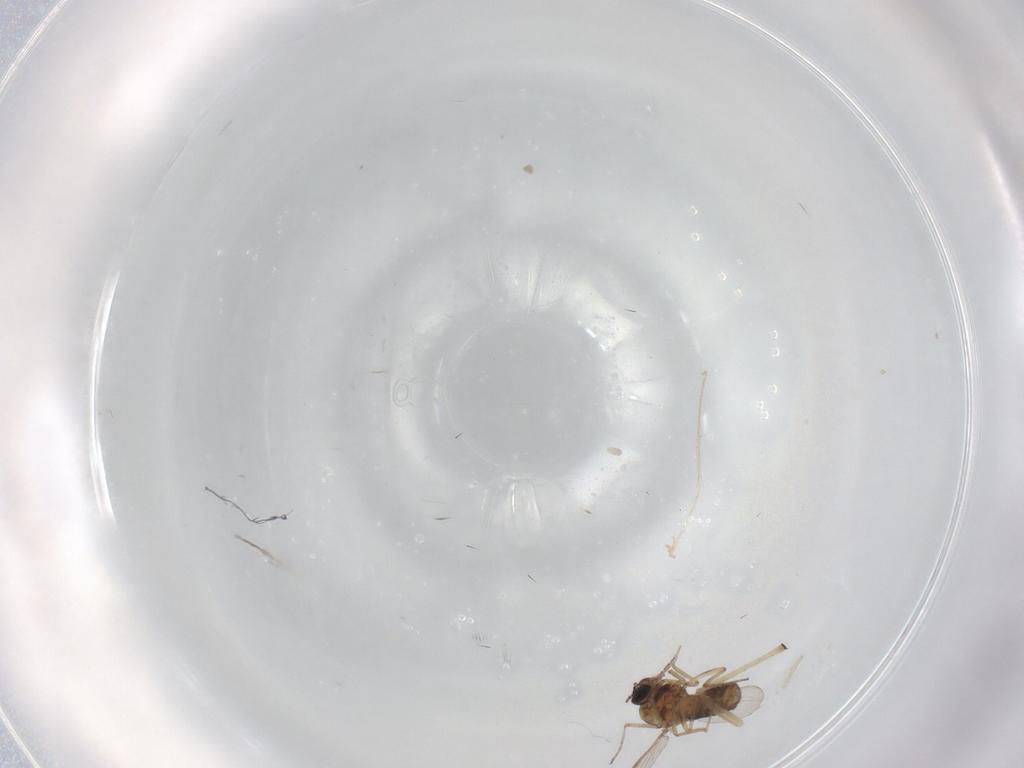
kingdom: Animalia
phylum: Arthropoda
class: Insecta
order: Diptera
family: Ceratopogonidae
